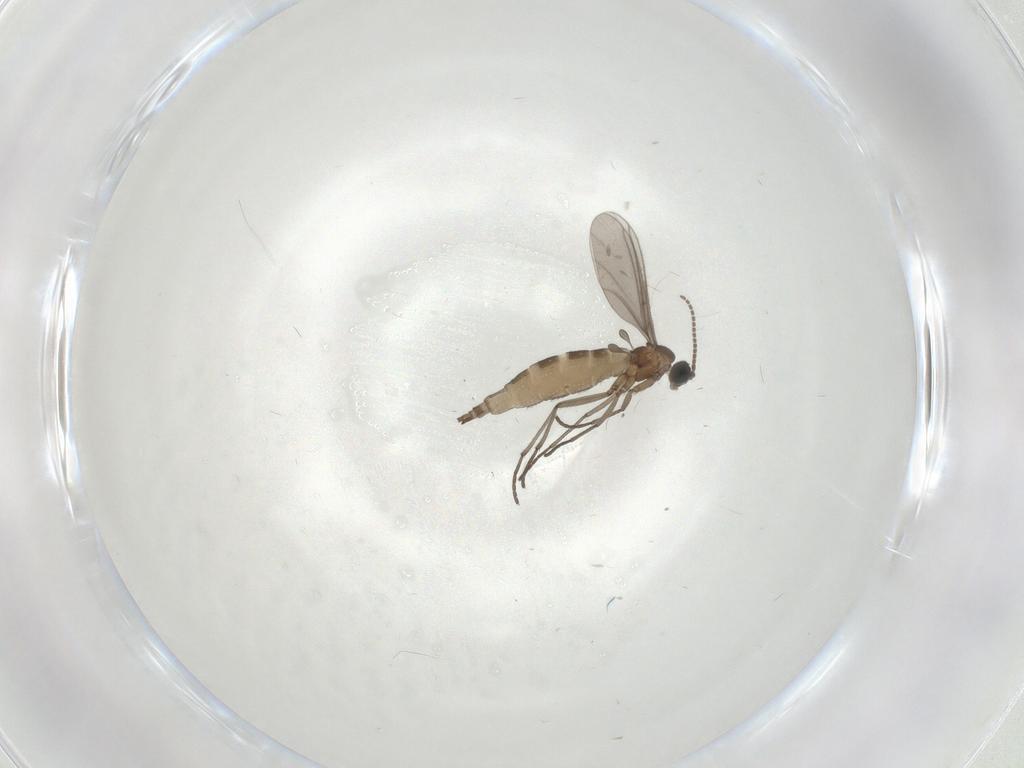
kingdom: Animalia
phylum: Arthropoda
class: Insecta
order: Diptera
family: Sciaridae
